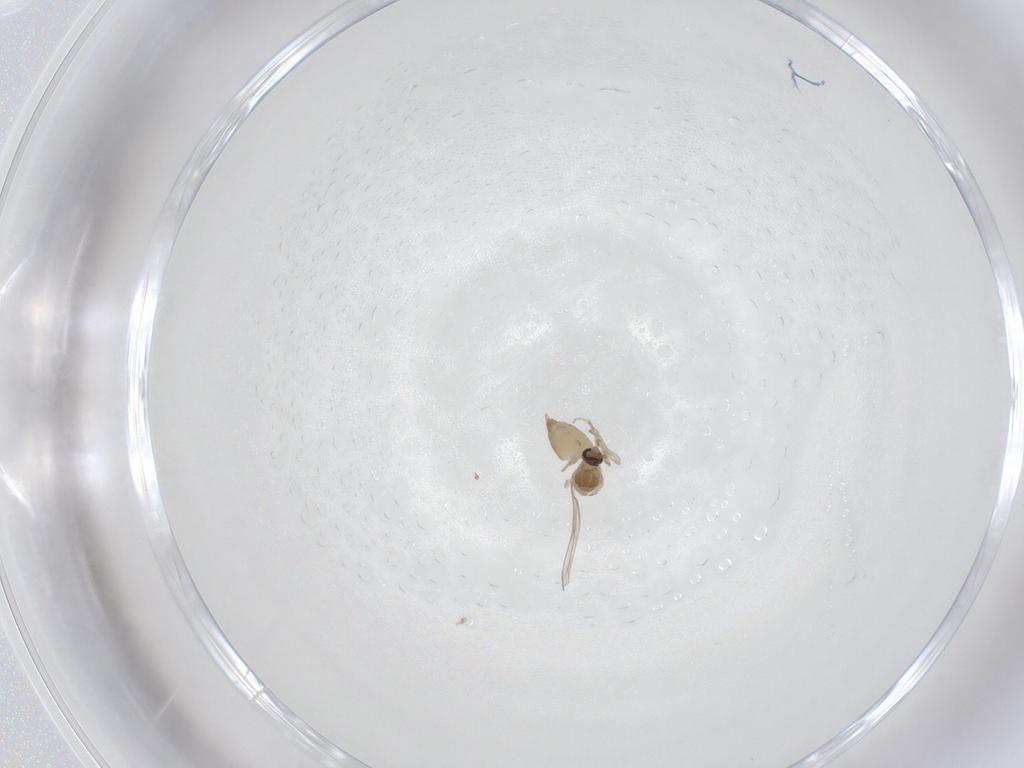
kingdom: Animalia
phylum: Arthropoda
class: Insecta
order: Diptera
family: Cecidomyiidae
